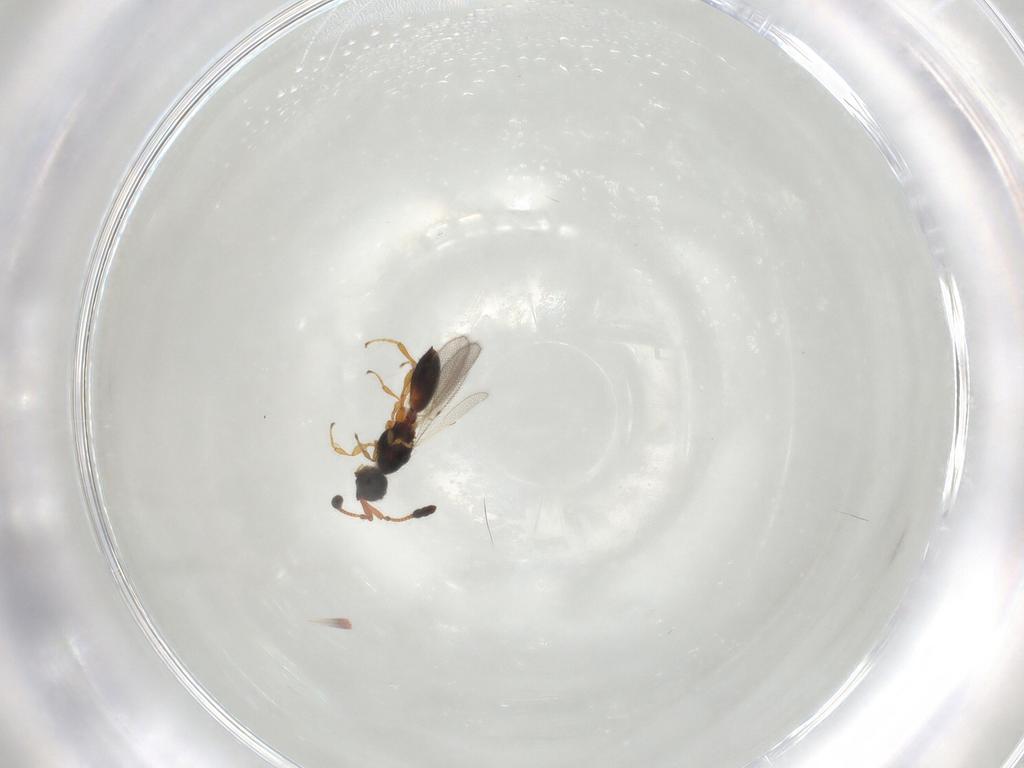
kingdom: Animalia
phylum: Arthropoda
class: Insecta
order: Hymenoptera
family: Diapriidae
